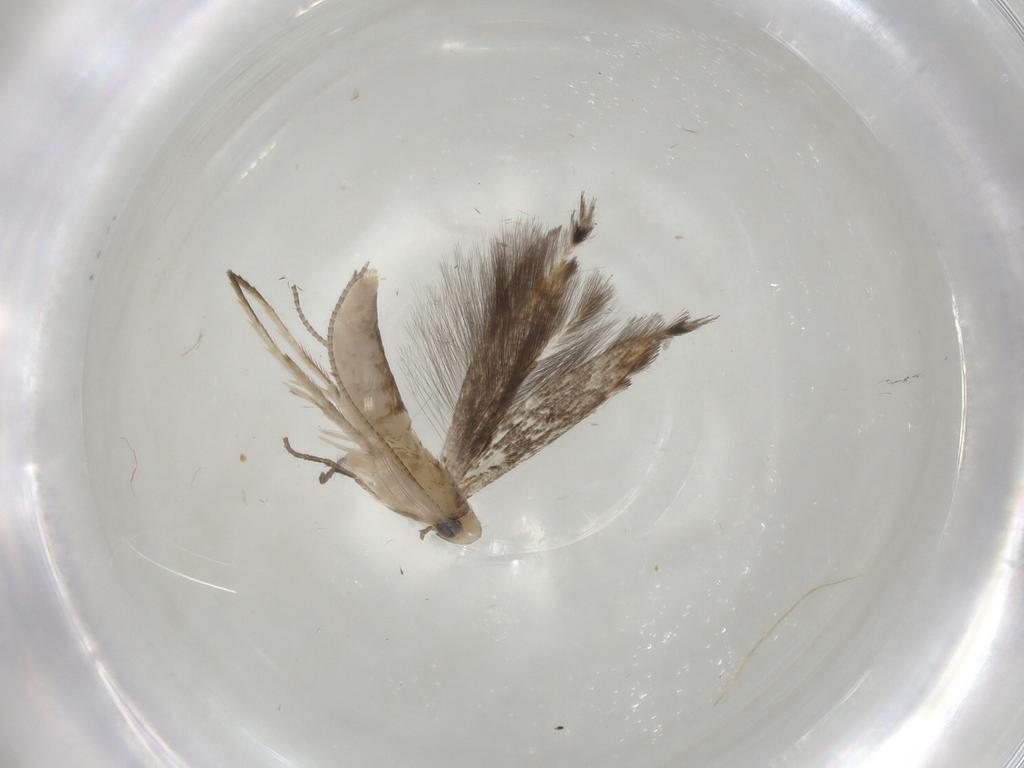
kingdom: Animalia
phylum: Arthropoda
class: Insecta
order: Lepidoptera
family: Gracillariidae
